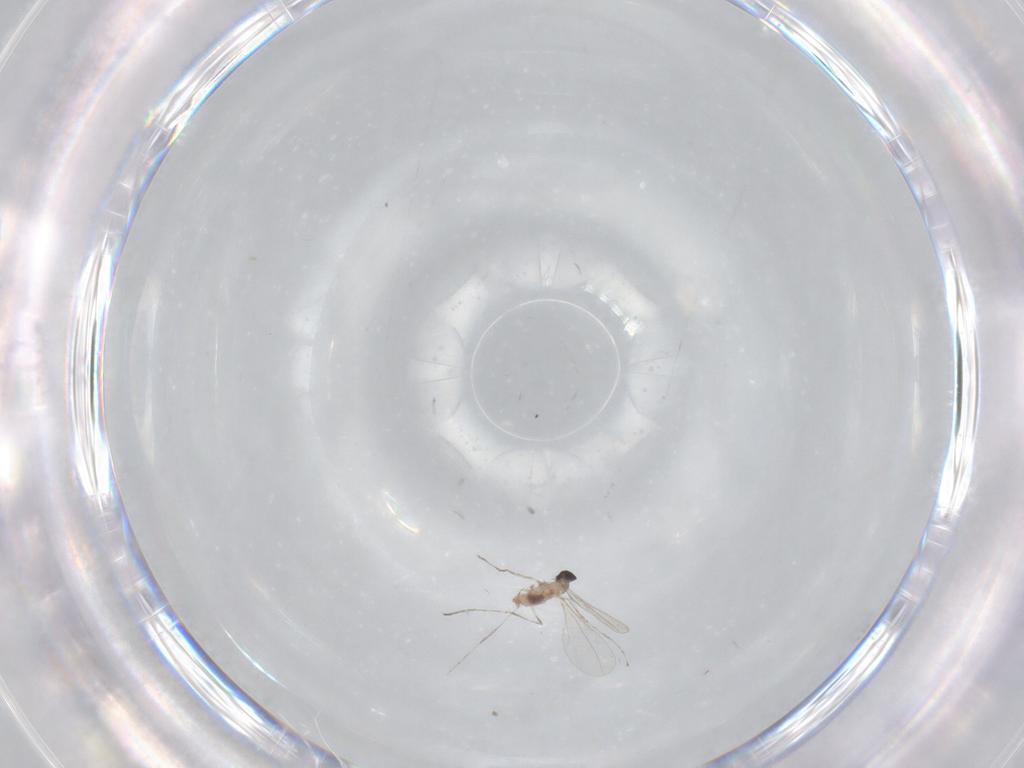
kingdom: Animalia
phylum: Arthropoda
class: Insecta
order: Diptera
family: Cecidomyiidae
